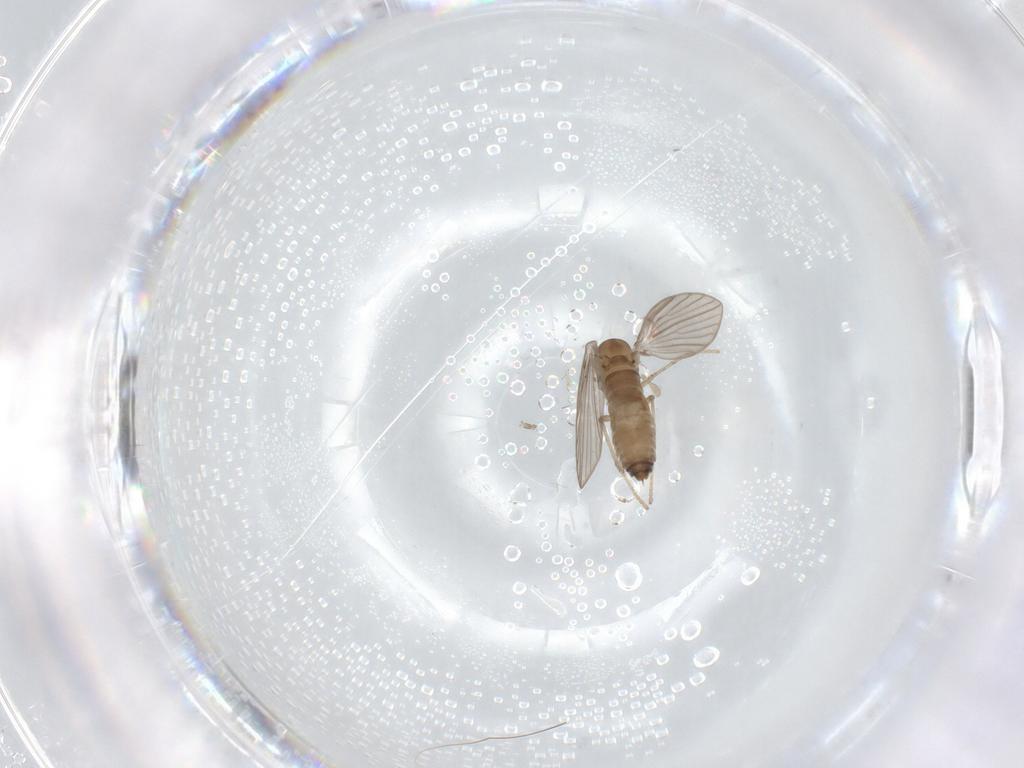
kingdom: Animalia
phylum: Arthropoda
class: Insecta
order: Diptera
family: Psychodidae
